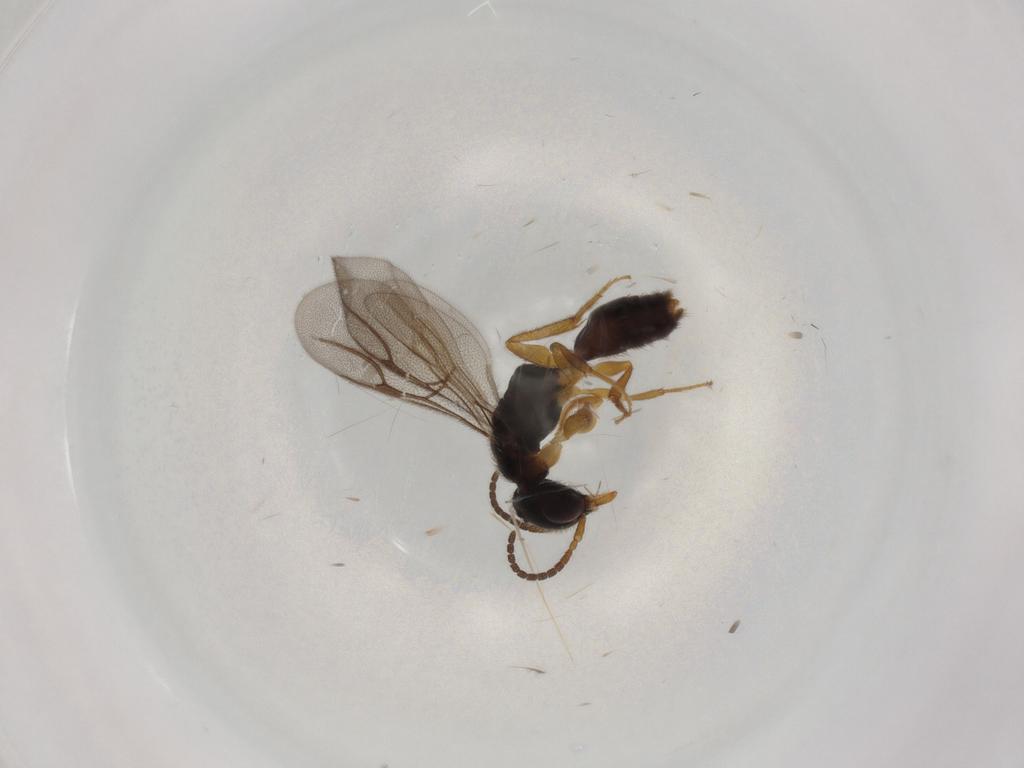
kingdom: Animalia
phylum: Arthropoda
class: Insecta
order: Hymenoptera
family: Bethylidae
